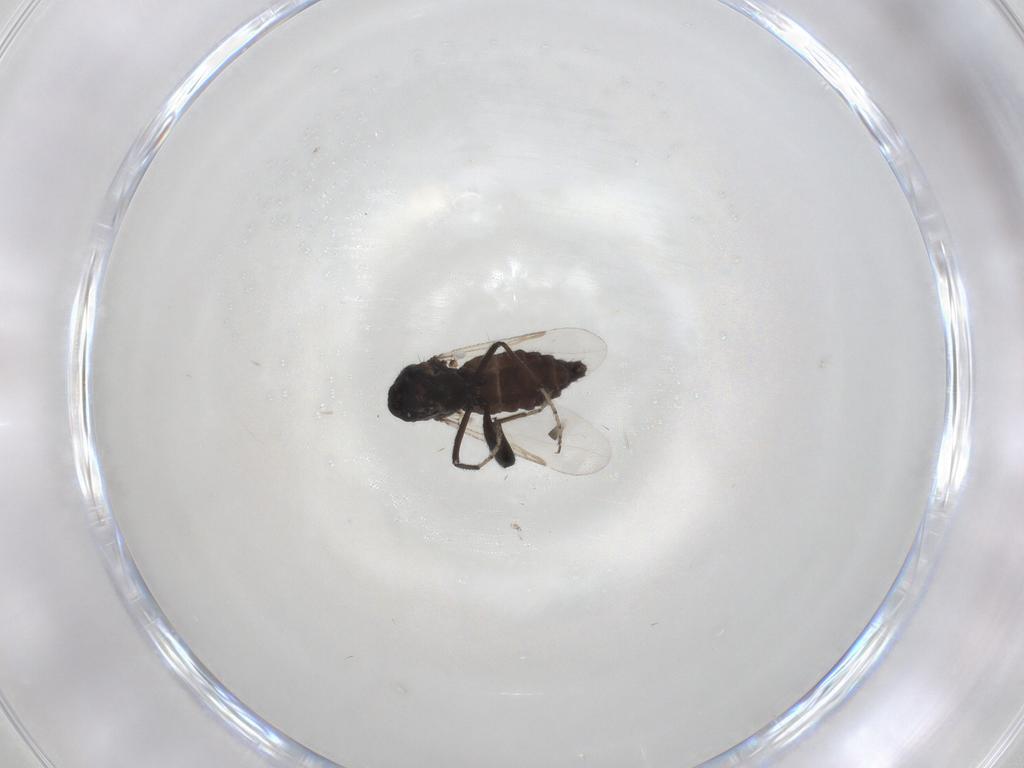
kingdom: Animalia
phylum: Arthropoda
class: Insecta
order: Diptera
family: Ceratopogonidae
